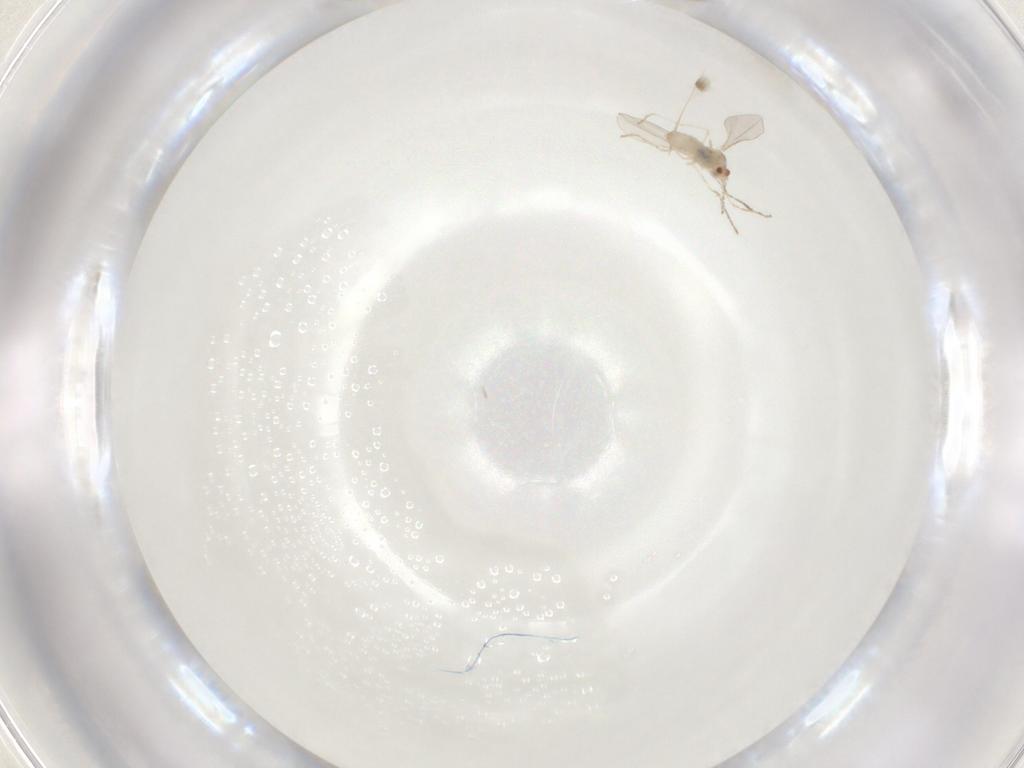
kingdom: Animalia
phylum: Arthropoda
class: Insecta
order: Diptera
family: Cecidomyiidae
